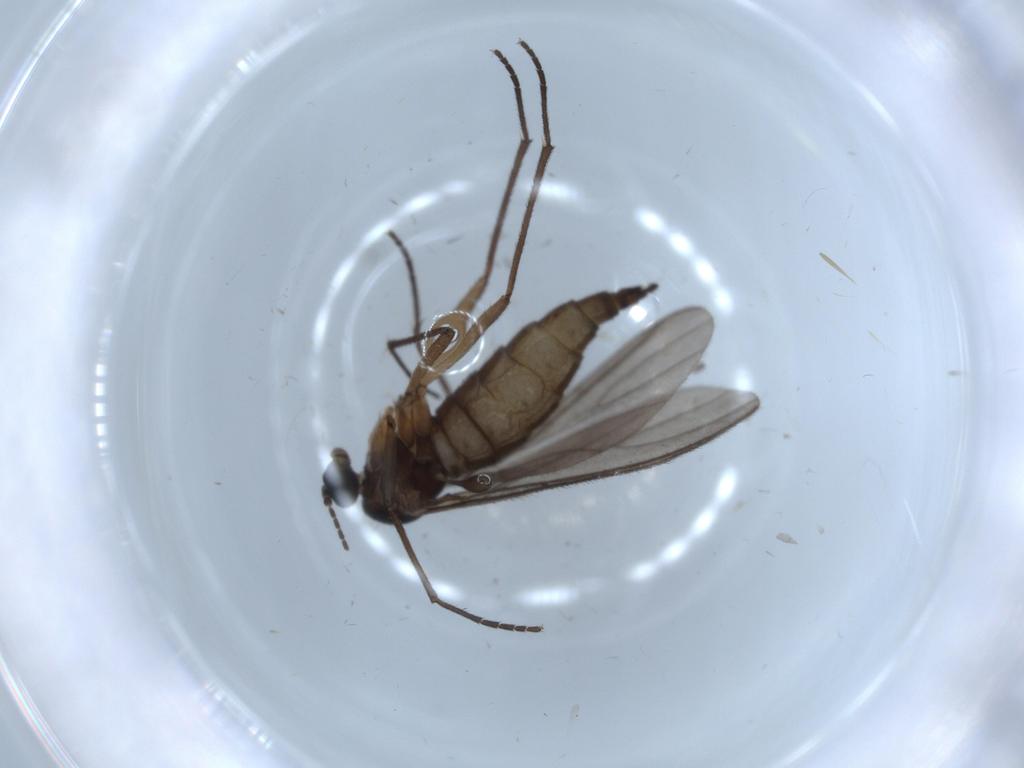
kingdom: Animalia
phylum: Arthropoda
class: Insecta
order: Diptera
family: Sciaridae
